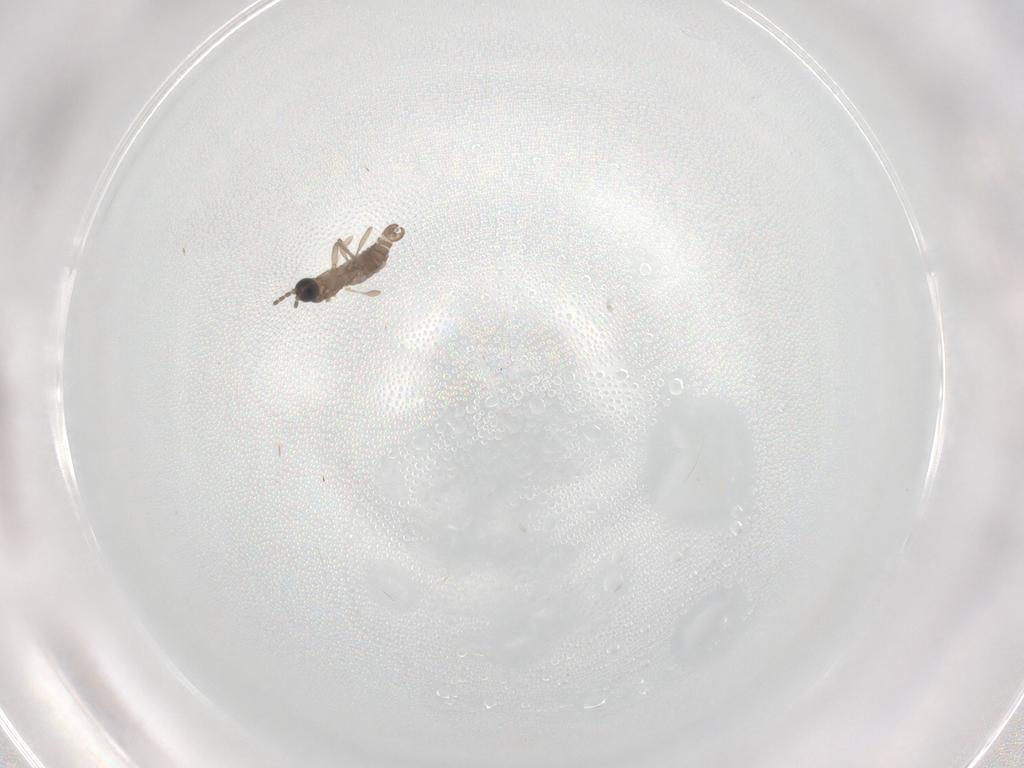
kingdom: Animalia
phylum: Arthropoda
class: Insecta
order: Diptera
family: Sciaridae
